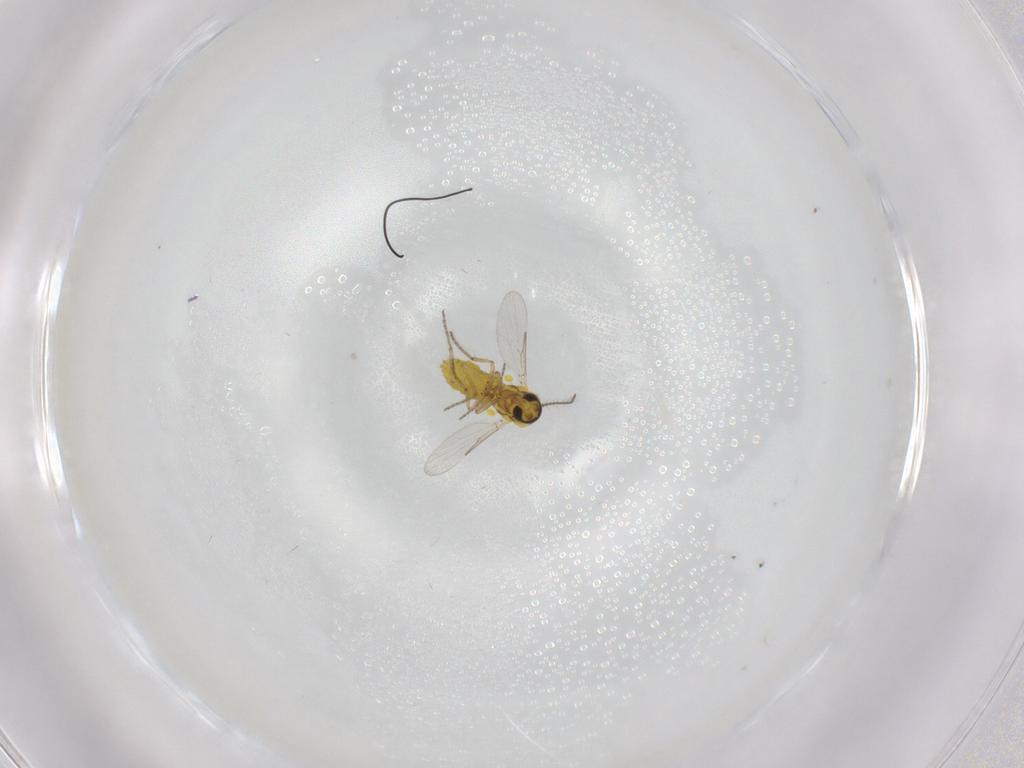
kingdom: Animalia
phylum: Arthropoda
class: Insecta
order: Diptera
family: Ceratopogonidae
